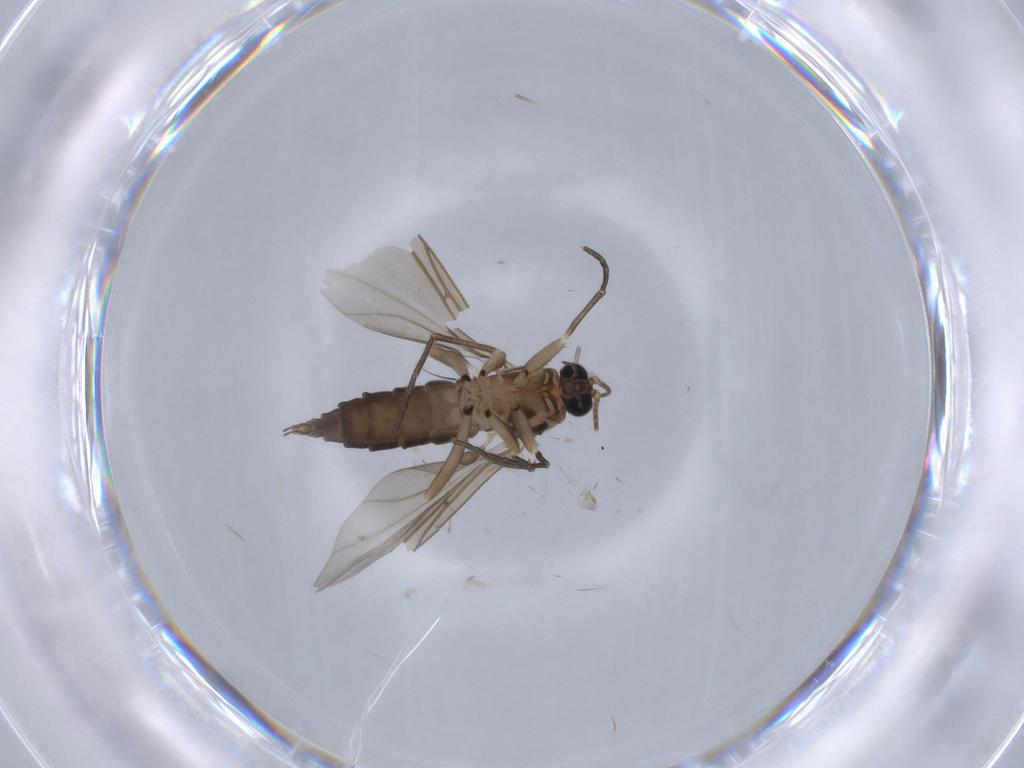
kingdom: Animalia
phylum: Arthropoda
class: Insecta
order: Diptera
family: Sciaridae
